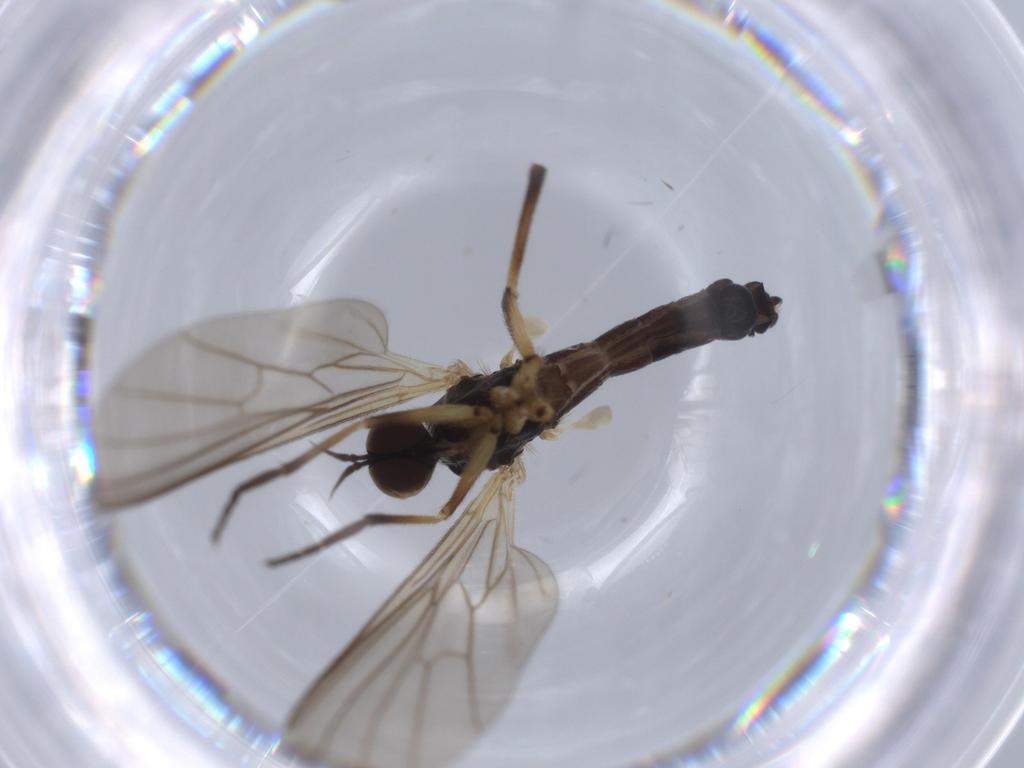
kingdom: Animalia
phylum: Arthropoda
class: Insecta
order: Diptera
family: Empididae
